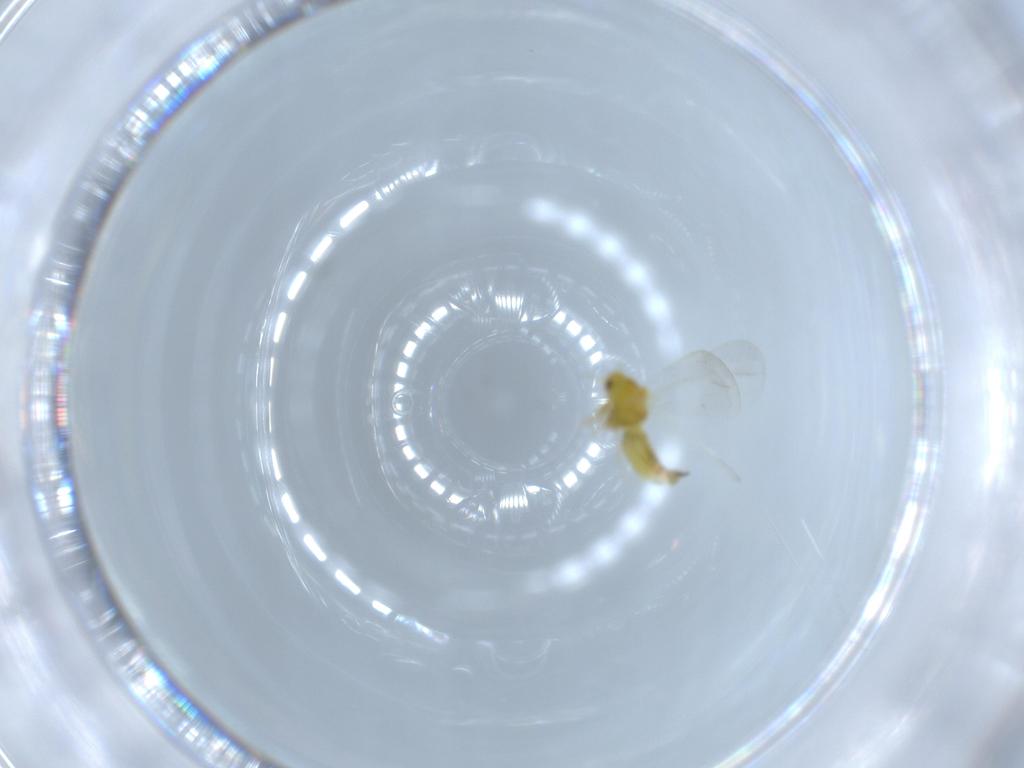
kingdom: Animalia
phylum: Arthropoda
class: Insecta
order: Hemiptera
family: Aleyrodidae
